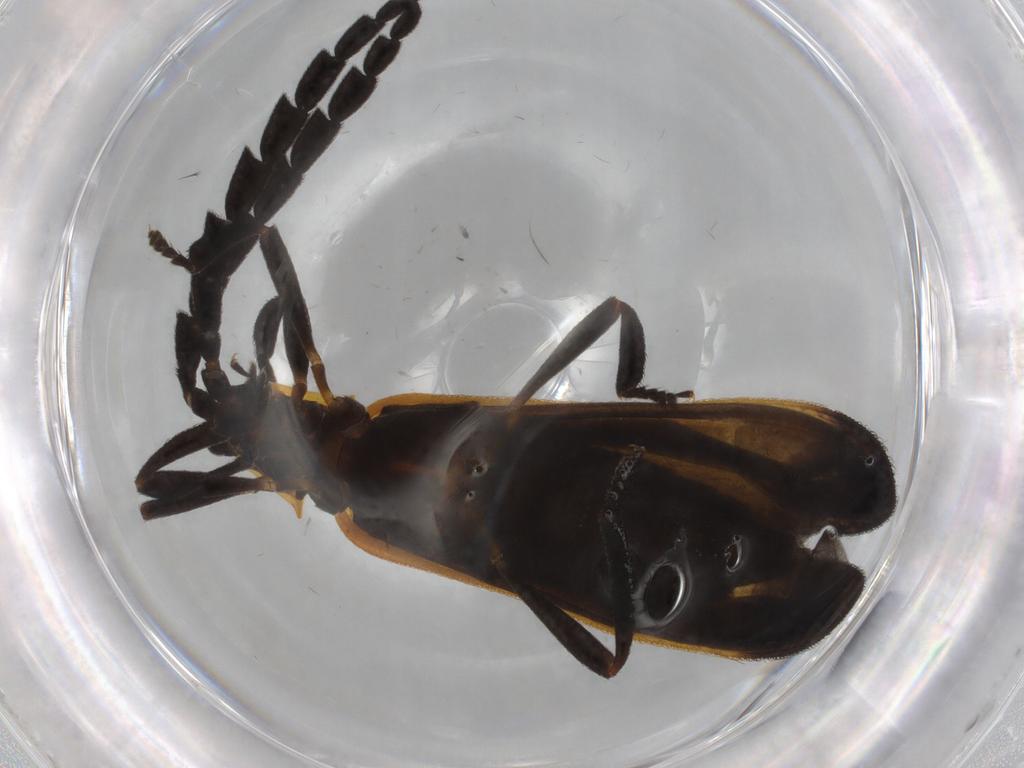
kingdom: Animalia
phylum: Arthropoda
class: Insecta
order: Coleoptera
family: Lycidae
